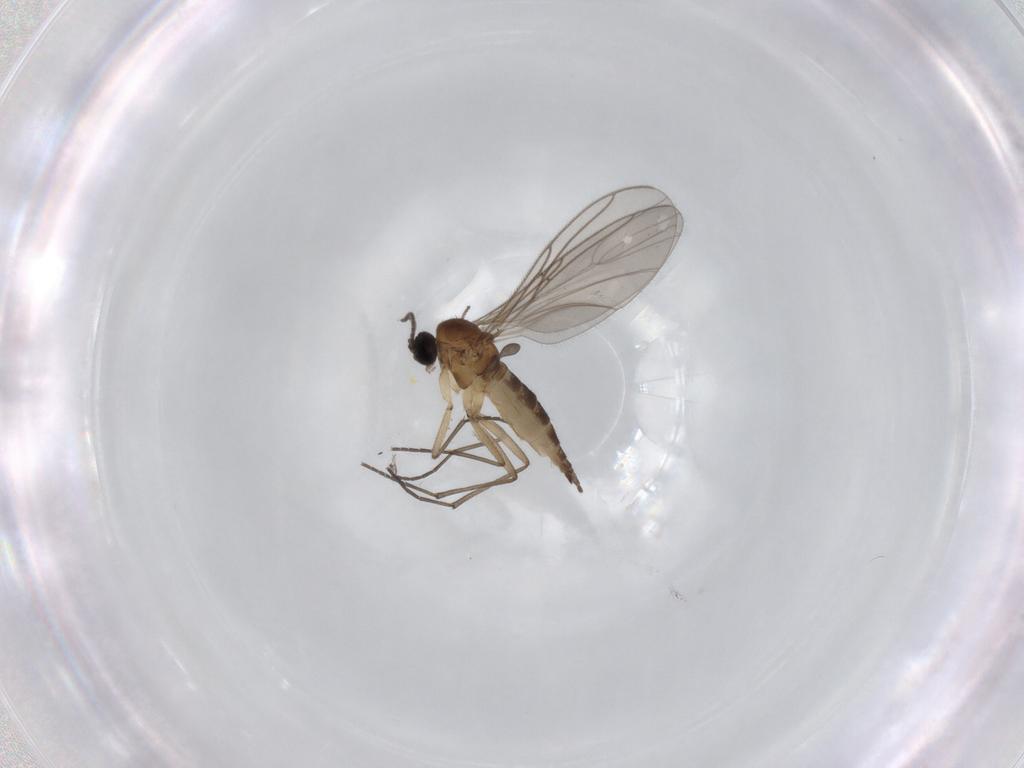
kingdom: Animalia
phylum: Arthropoda
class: Insecta
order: Diptera
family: Sciaridae
